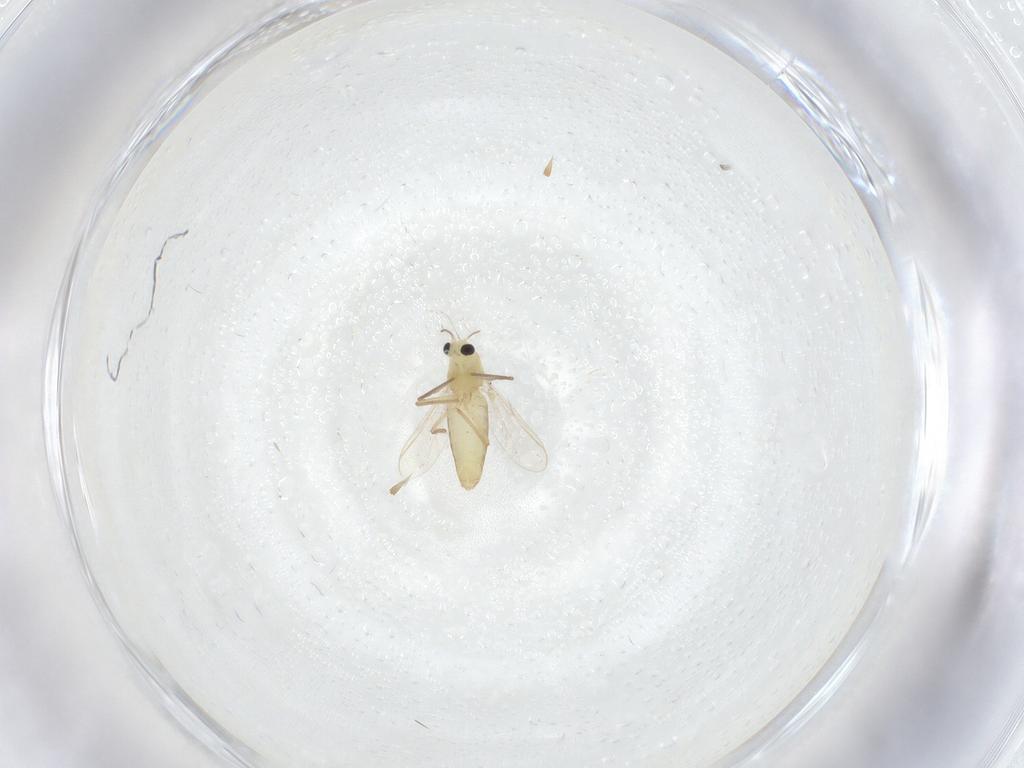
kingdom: Animalia
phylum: Arthropoda
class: Insecta
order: Diptera
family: Chironomidae
